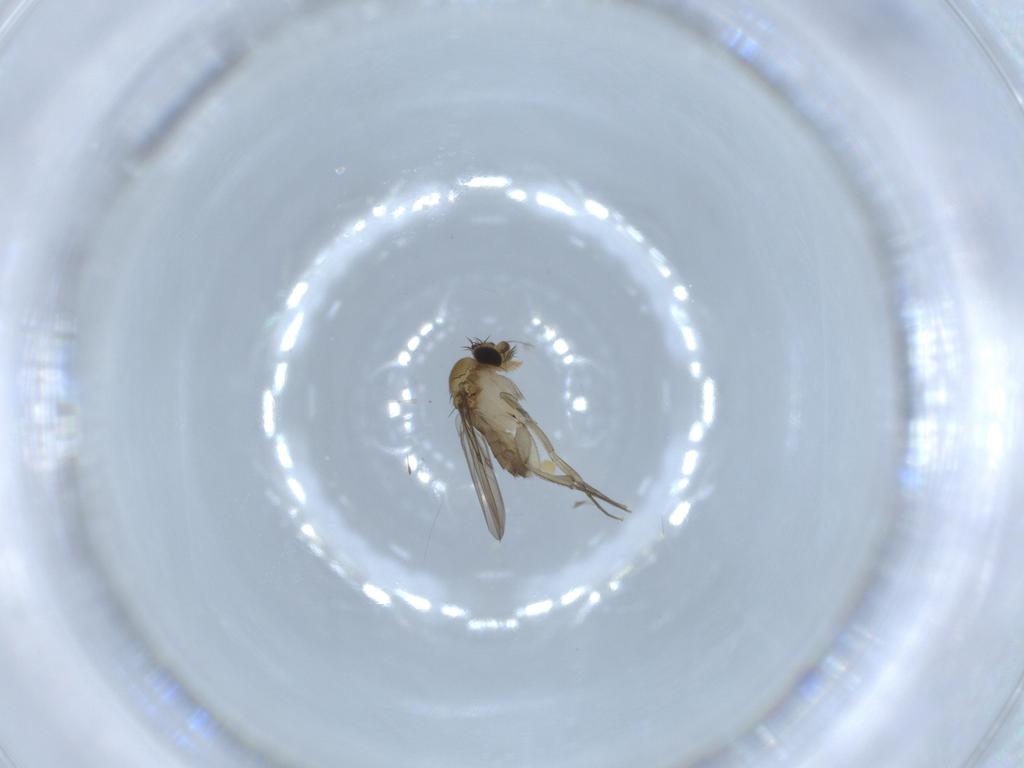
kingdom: Animalia
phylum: Arthropoda
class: Insecta
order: Diptera
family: Phoridae
